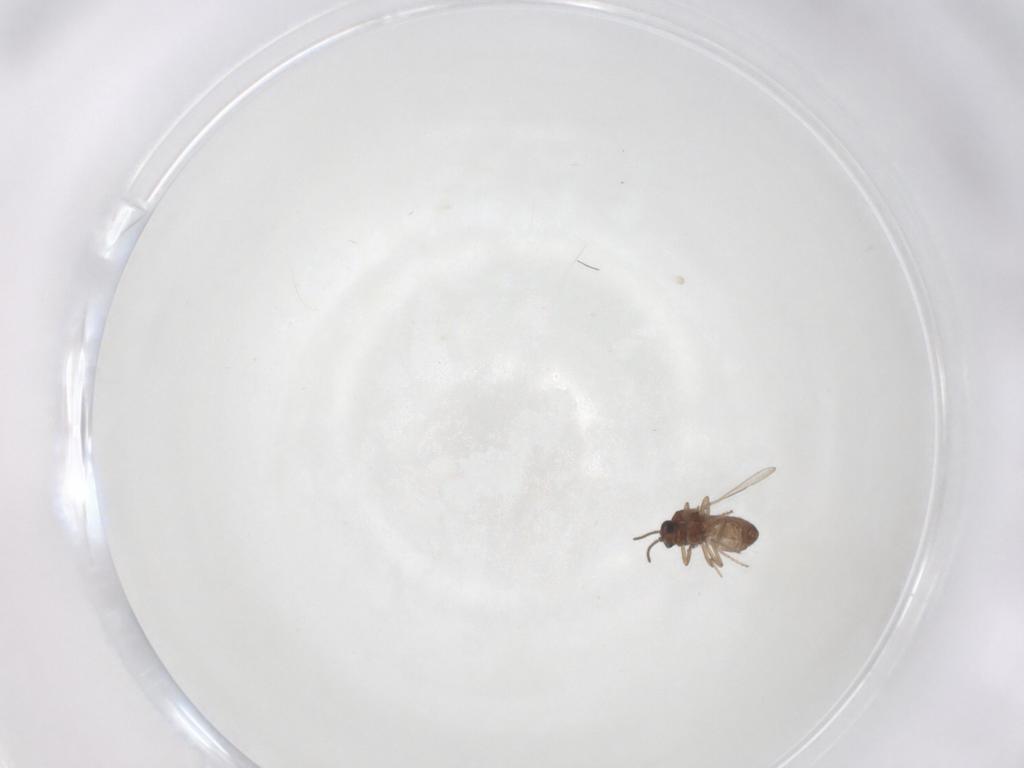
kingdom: Animalia
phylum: Arthropoda
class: Insecta
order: Diptera
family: Ceratopogonidae
